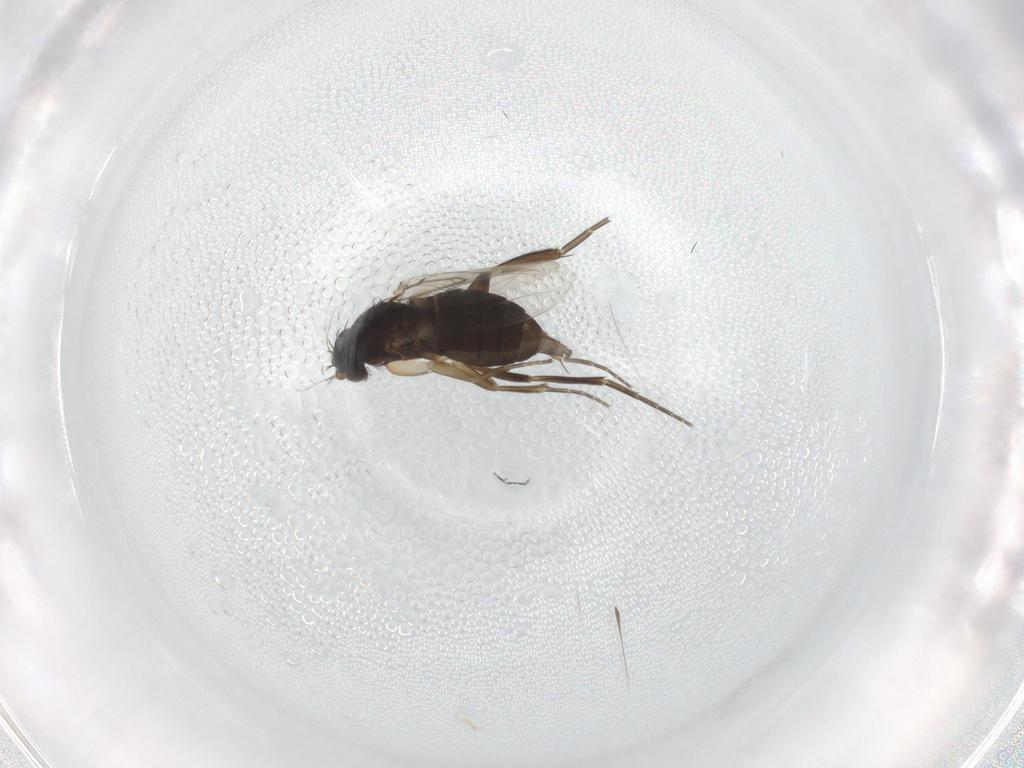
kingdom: Animalia
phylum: Arthropoda
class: Insecta
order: Diptera
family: Phoridae
